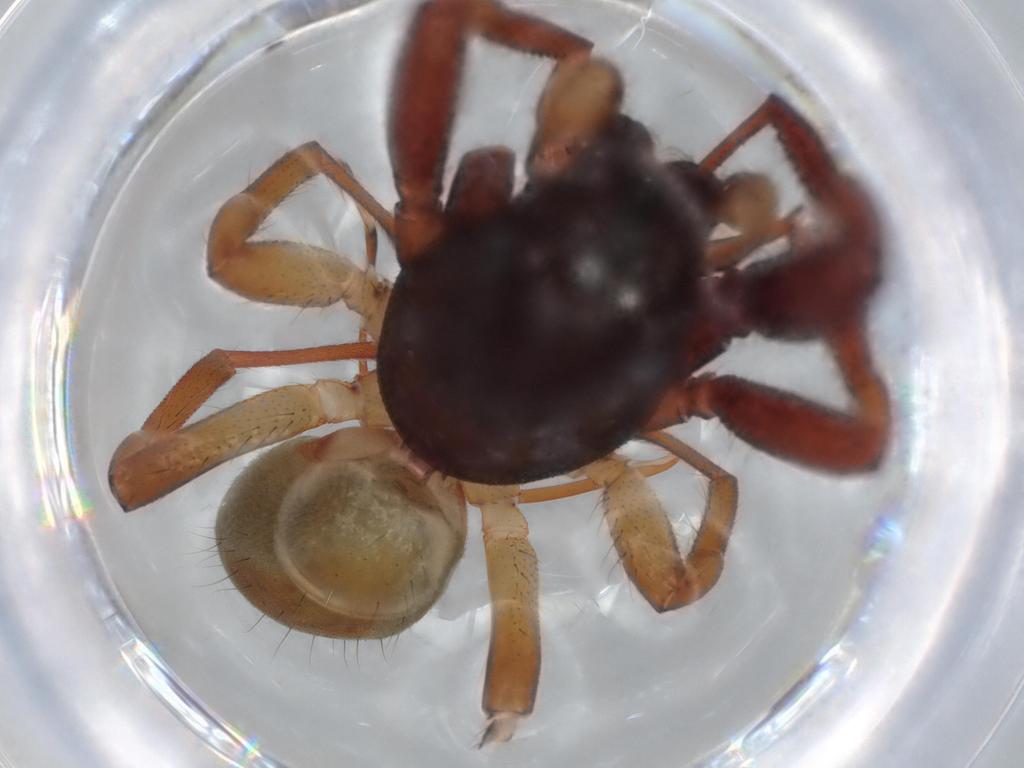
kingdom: Animalia
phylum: Arthropoda
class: Arachnida
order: Araneae
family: Trachelidae
